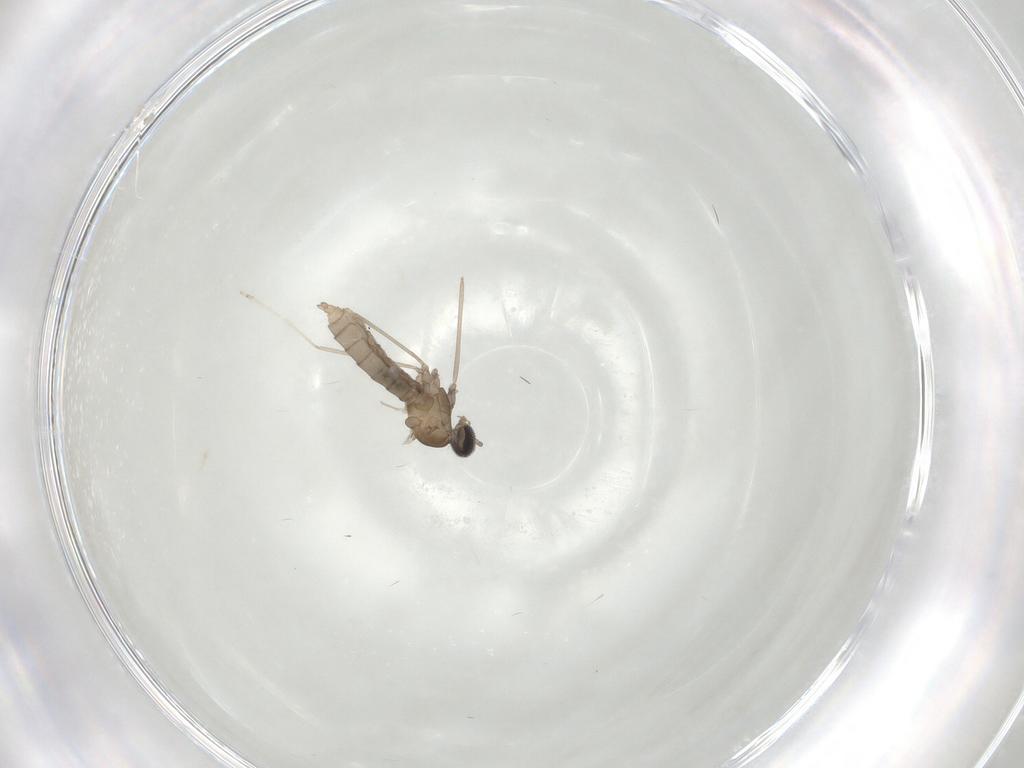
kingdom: Animalia
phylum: Arthropoda
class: Insecta
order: Diptera
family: Cecidomyiidae
